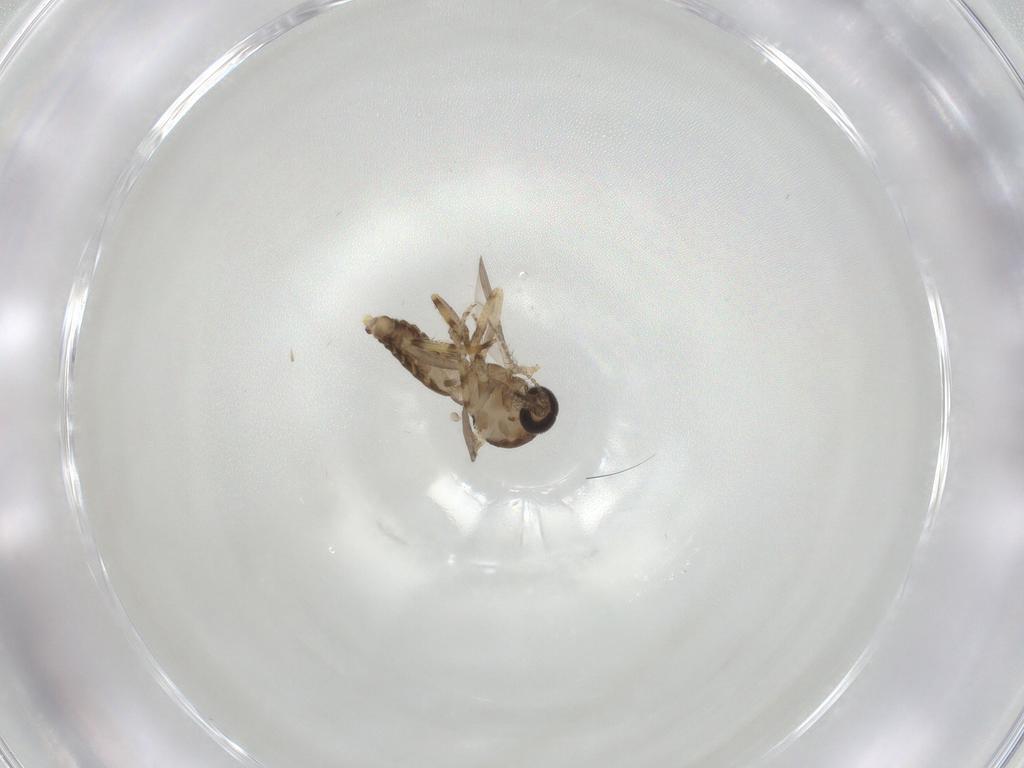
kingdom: Animalia
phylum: Arthropoda
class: Insecta
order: Diptera
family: Ceratopogonidae
